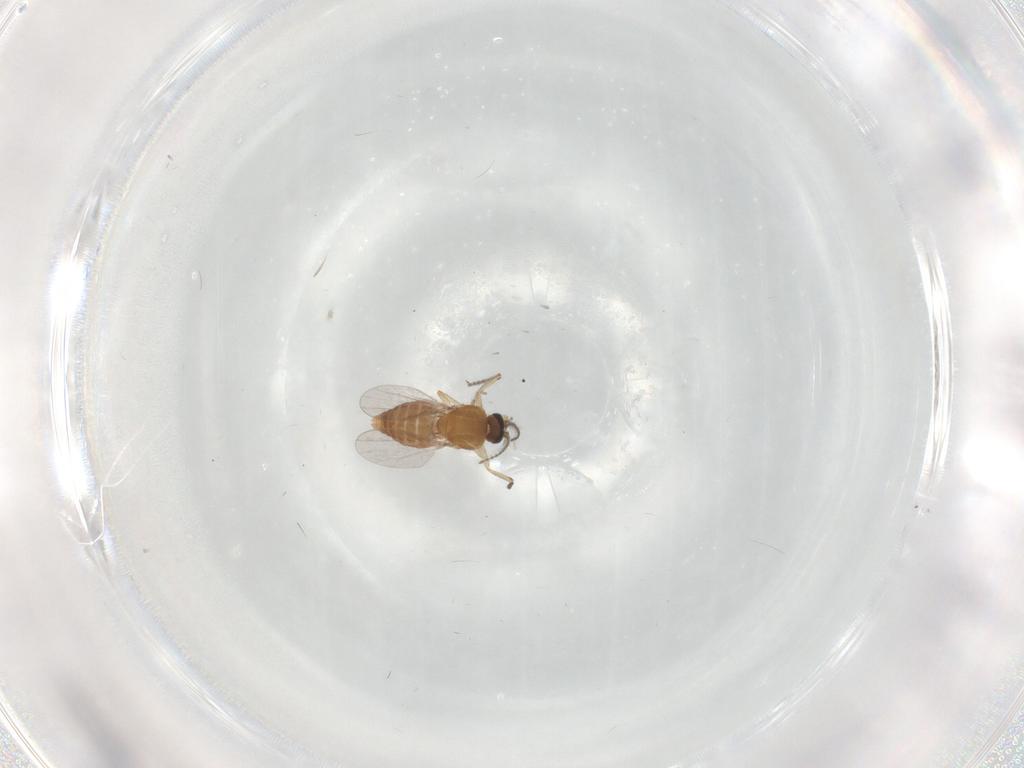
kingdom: Animalia
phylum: Arthropoda
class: Insecta
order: Diptera
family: Ceratopogonidae
